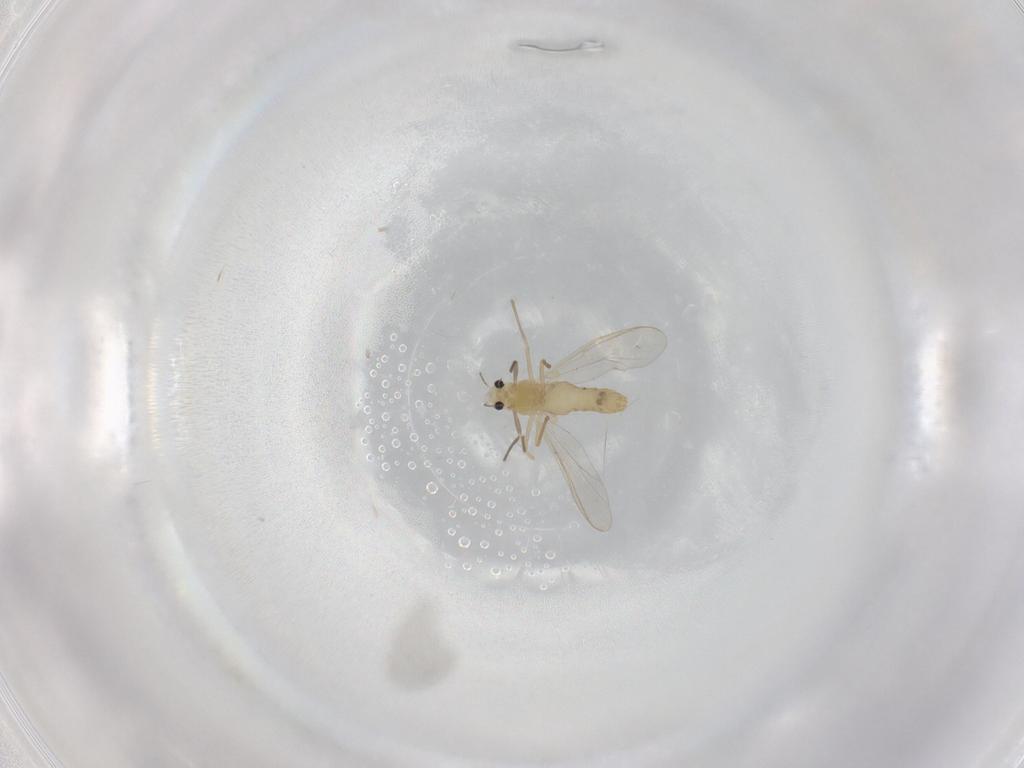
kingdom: Animalia
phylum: Arthropoda
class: Insecta
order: Diptera
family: Chironomidae
